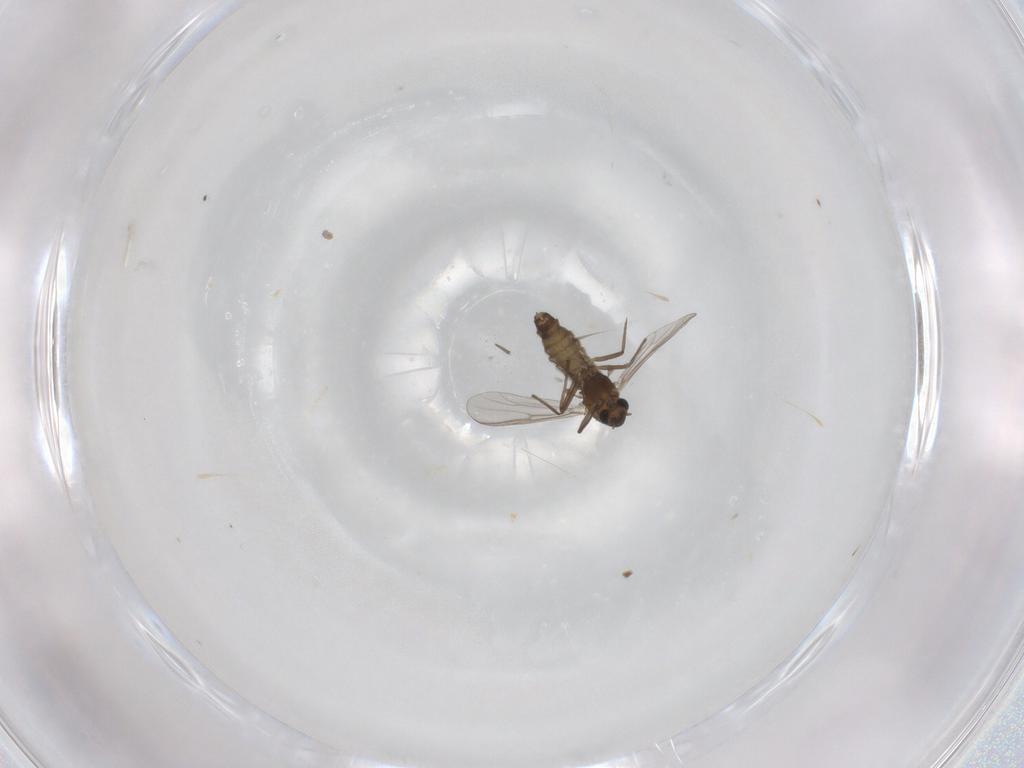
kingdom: Animalia
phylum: Arthropoda
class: Insecta
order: Diptera
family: Chironomidae
